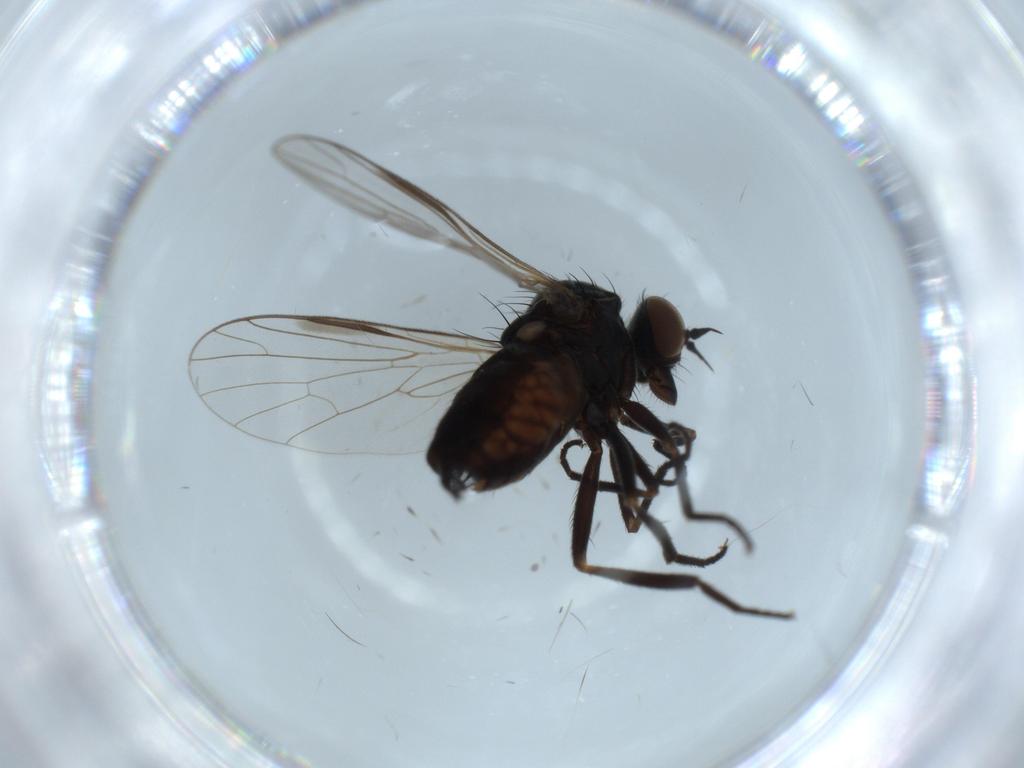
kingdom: Animalia
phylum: Arthropoda
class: Insecta
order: Diptera
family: Empididae
